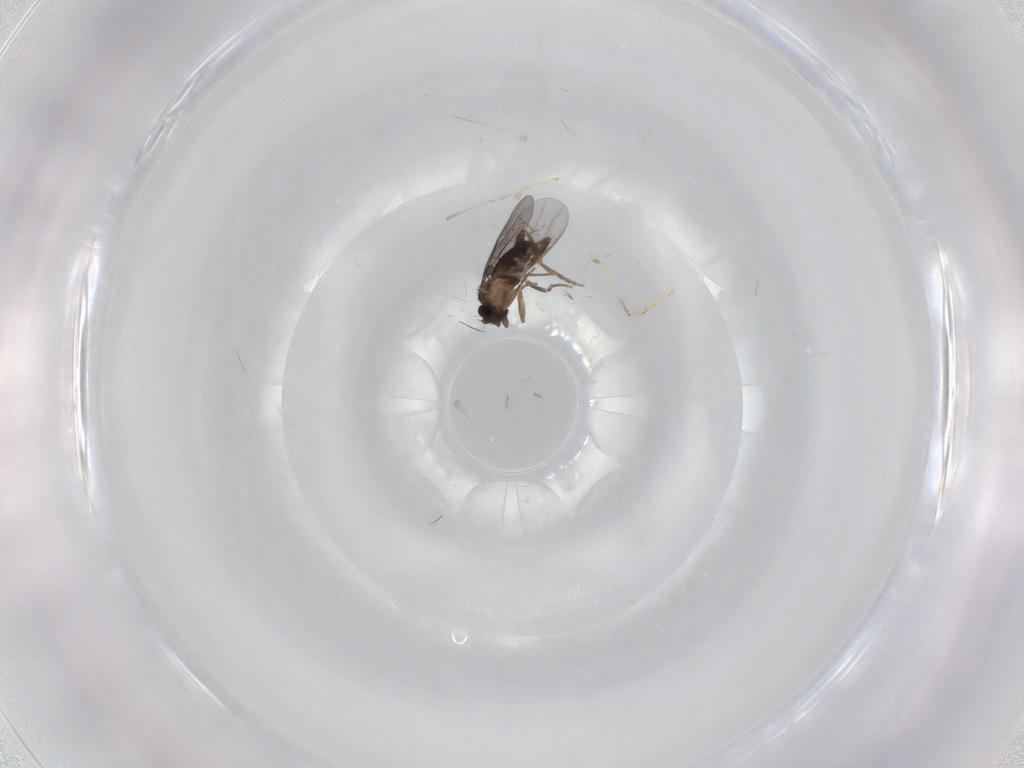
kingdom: Animalia
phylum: Arthropoda
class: Insecta
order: Diptera
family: Cecidomyiidae
